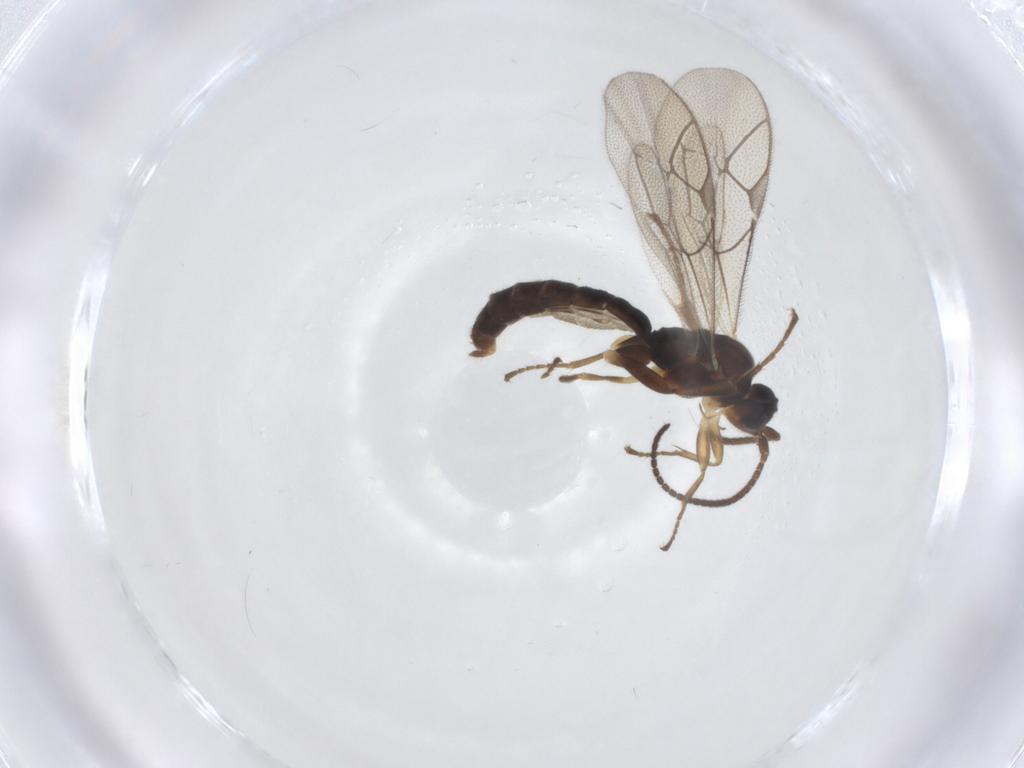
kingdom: Animalia
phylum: Arthropoda
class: Insecta
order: Hymenoptera
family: Ichneumonidae
